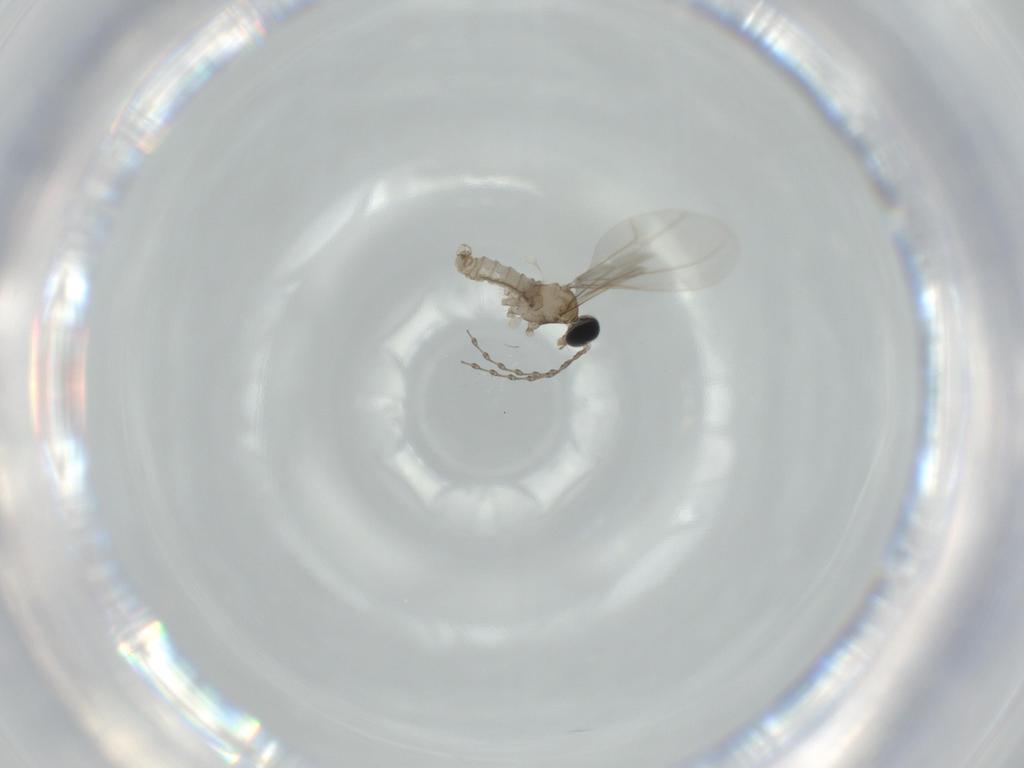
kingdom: Animalia
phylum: Arthropoda
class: Insecta
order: Diptera
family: Cecidomyiidae
